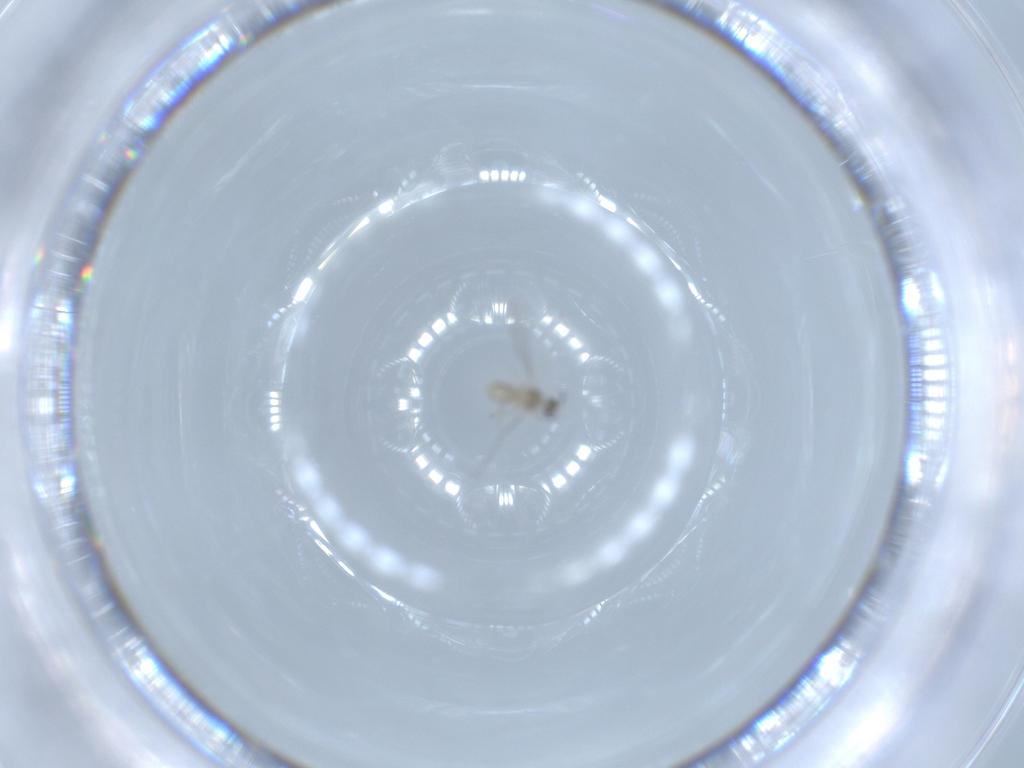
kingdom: Animalia
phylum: Arthropoda
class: Insecta
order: Diptera
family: Cecidomyiidae
